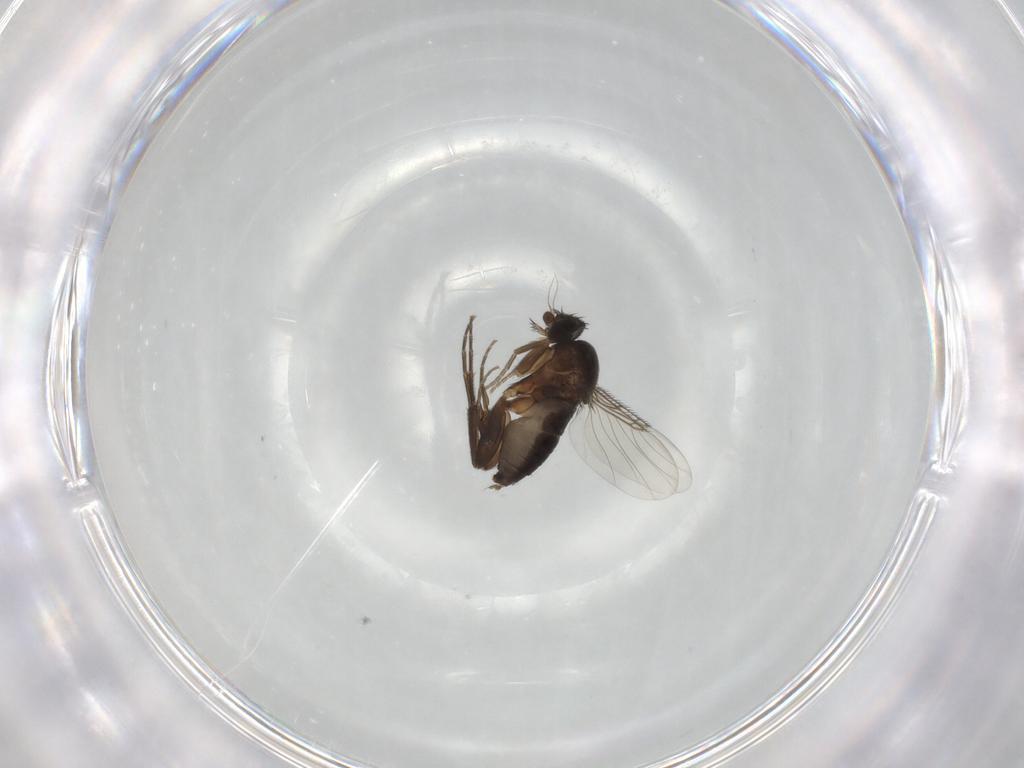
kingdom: Animalia
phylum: Arthropoda
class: Insecta
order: Diptera
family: Phoridae
